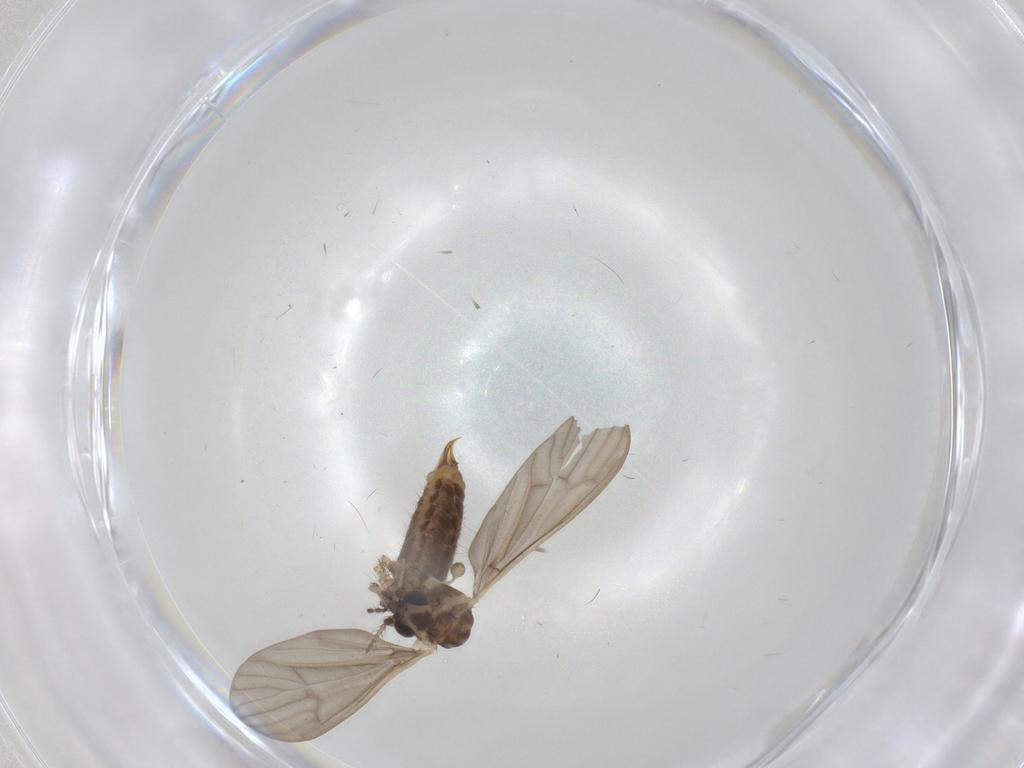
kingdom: Animalia
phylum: Arthropoda
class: Insecta
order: Diptera
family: Limoniidae
